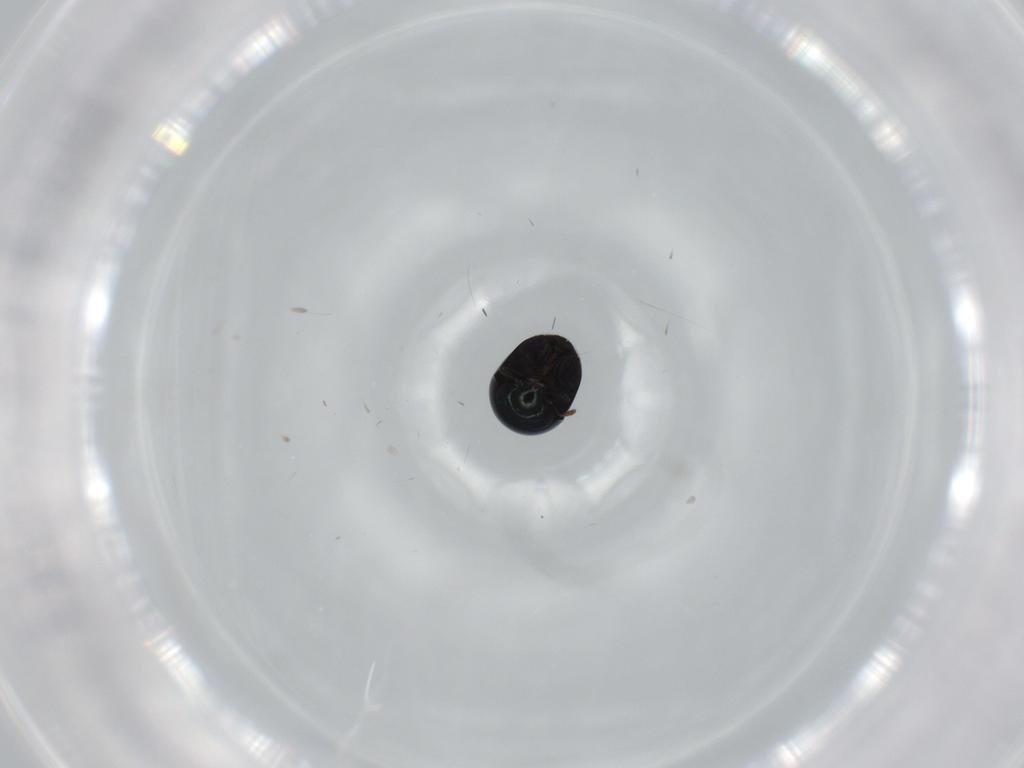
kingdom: Animalia
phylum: Arthropoda
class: Insecta
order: Coleoptera
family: Cybocephalidae
